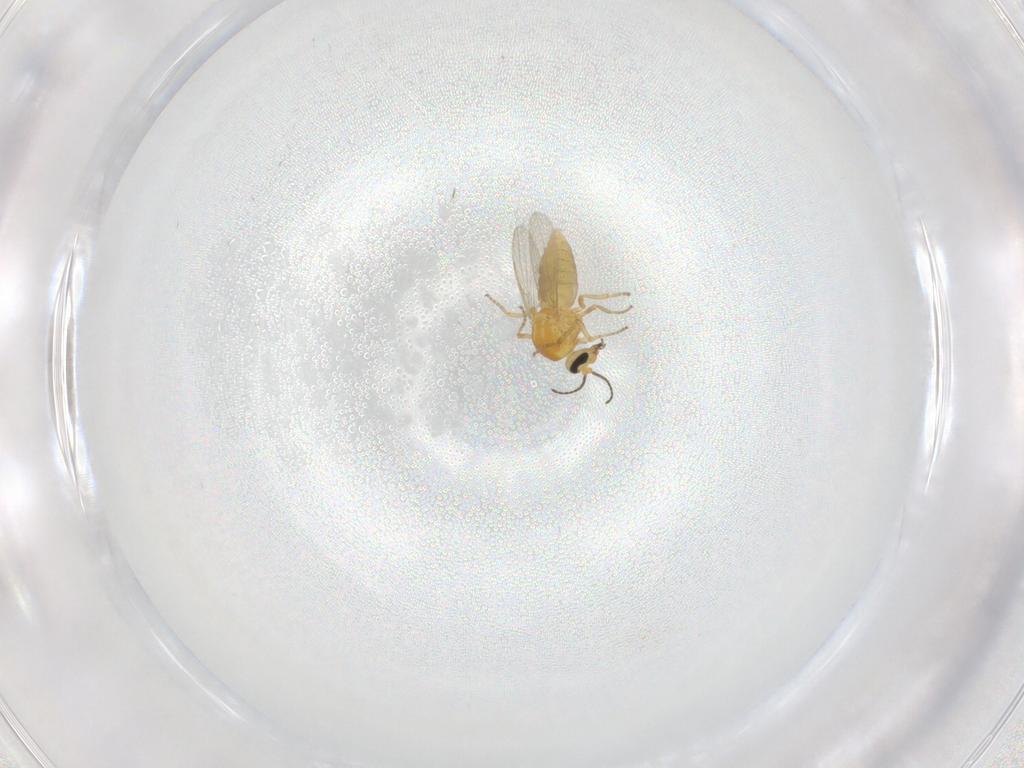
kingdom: Animalia
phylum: Arthropoda
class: Insecta
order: Diptera
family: Ceratopogonidae
